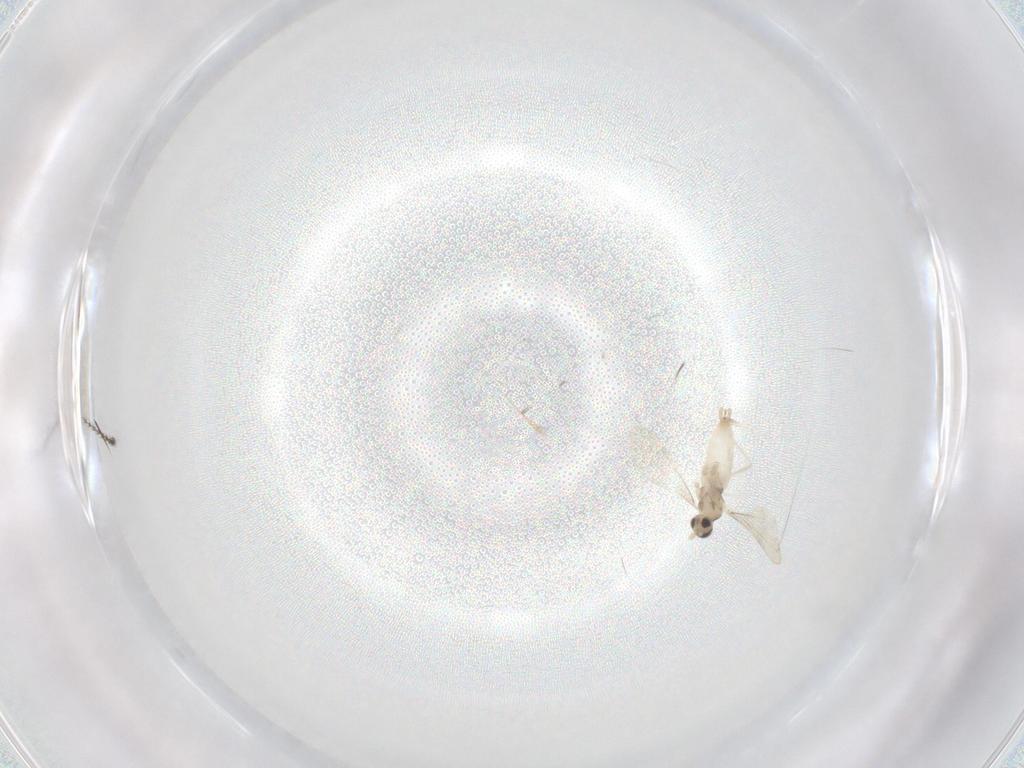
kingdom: Animalia
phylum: Arthropoda
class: Insecta
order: Diptera
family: Cecidomyiidae
